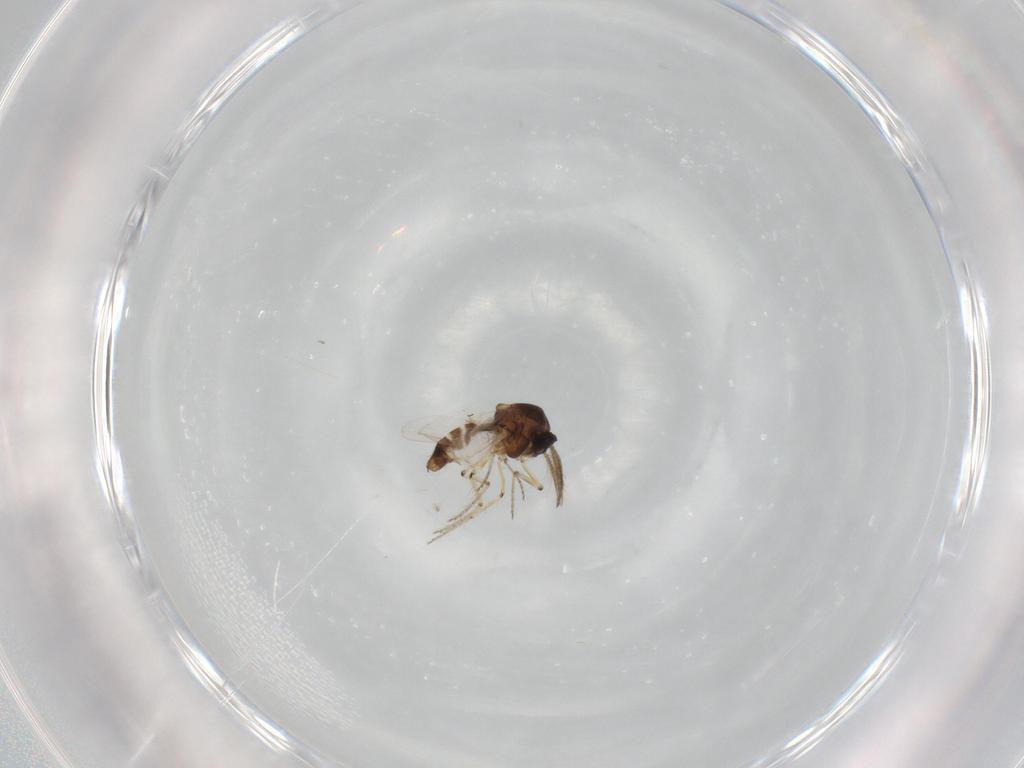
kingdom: Animalia
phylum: Arthropoda
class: Insecta
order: Diptera
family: Ceratopogonidae
